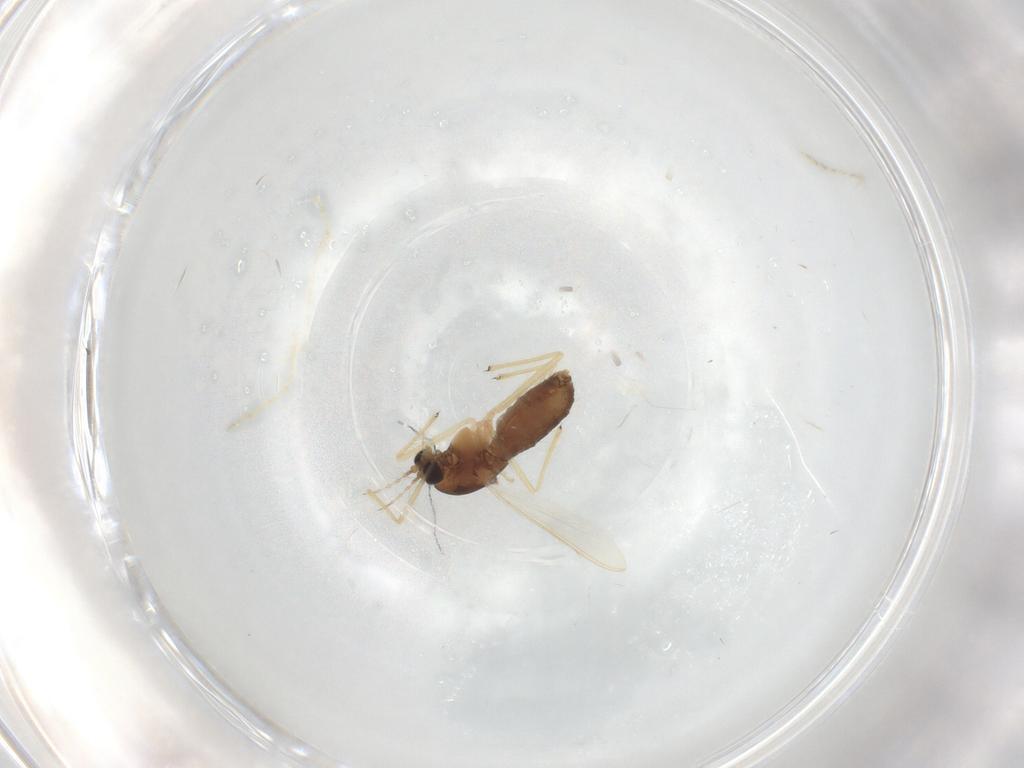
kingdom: Animalia
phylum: Arthropoda
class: Insecta
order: Diptera
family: Chironomidae
